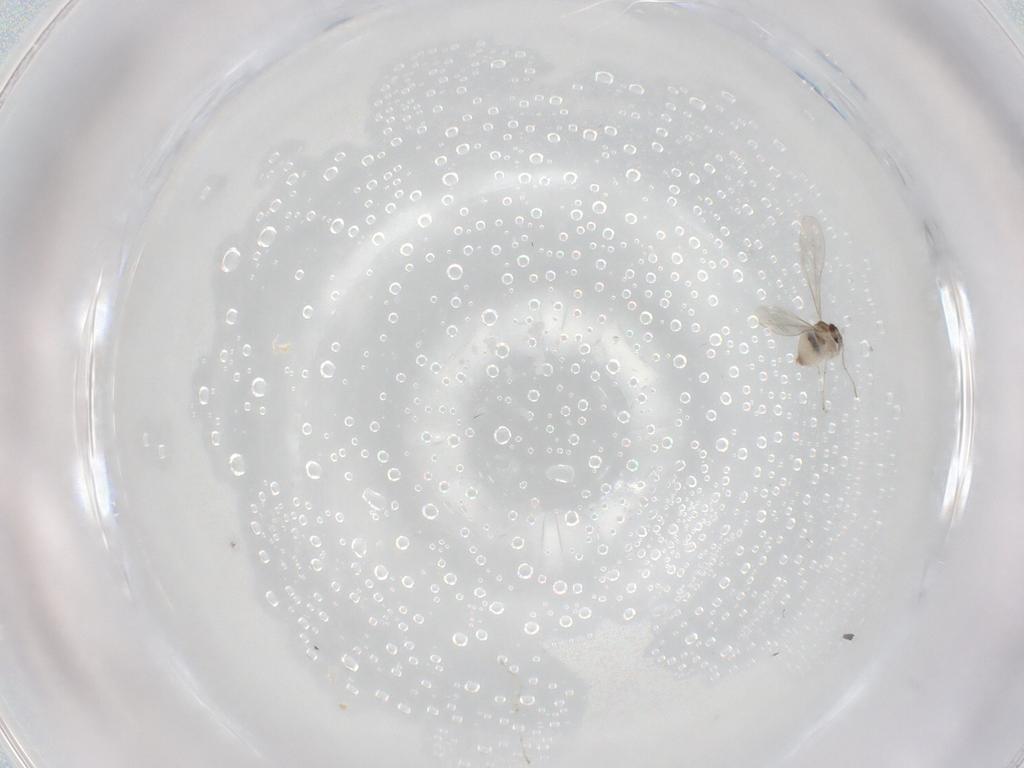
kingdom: Animalia
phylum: Arthropoda
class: Insecta
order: Diptera
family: Cecidomyiidae
